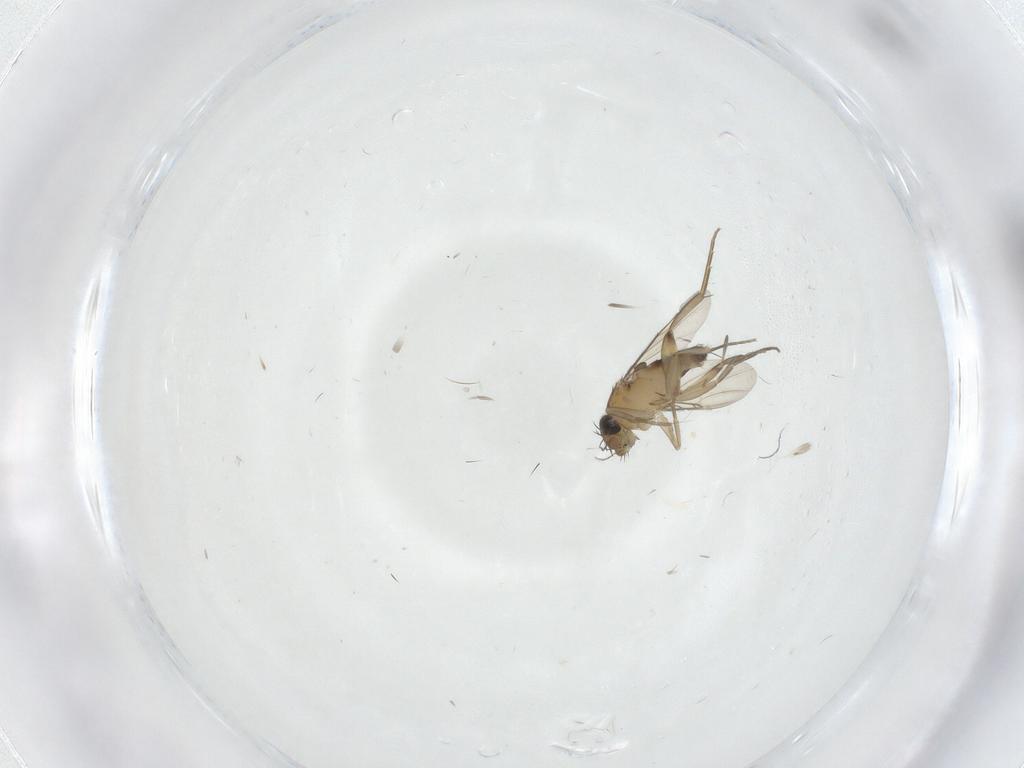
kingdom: Animalia
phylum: Arthropoda
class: Insecta
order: Diptera
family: Phoridae
